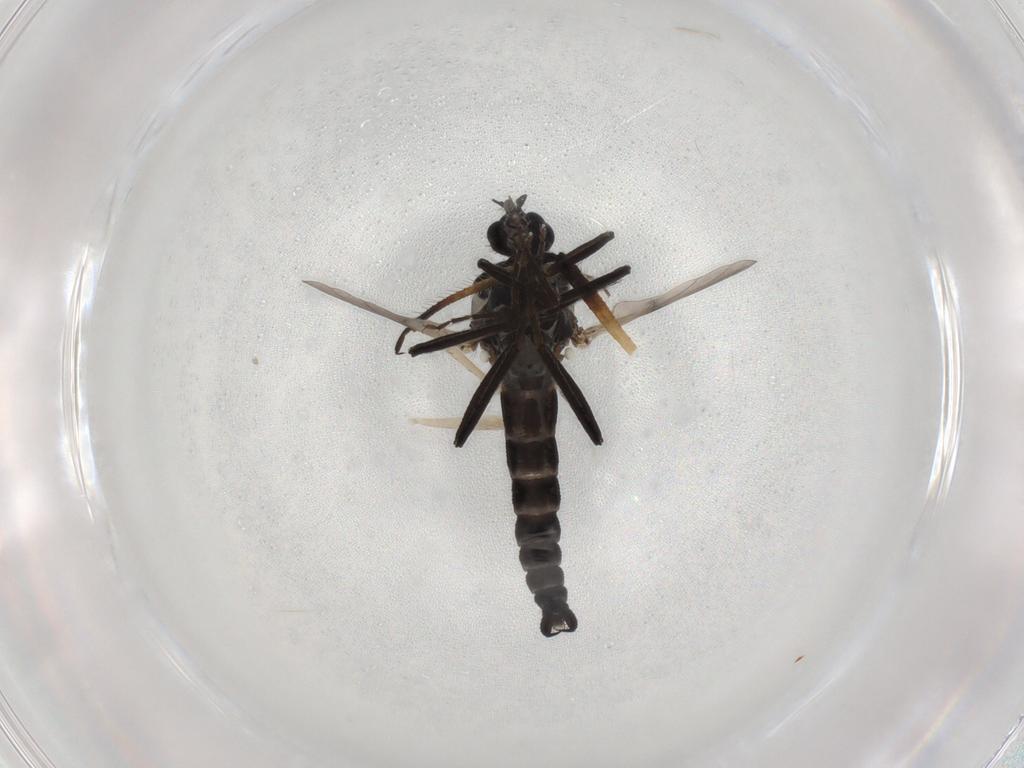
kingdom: Animalia
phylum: Arthropoda
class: Insecta
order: Diptera
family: Ceratopogonidae
